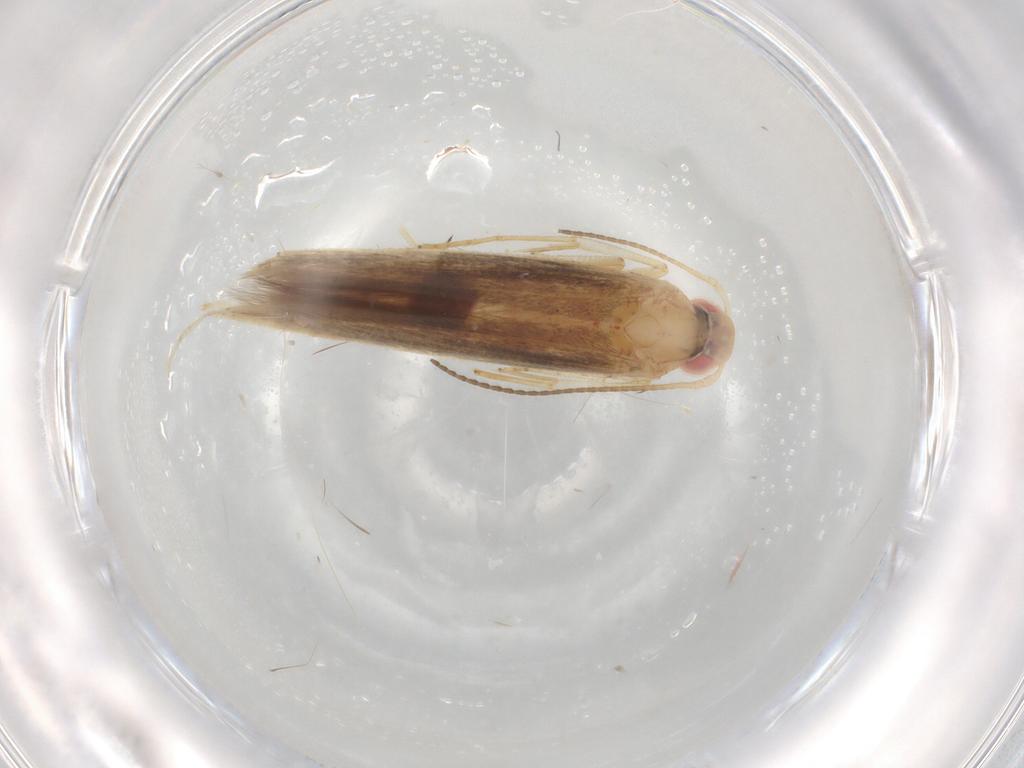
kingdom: Animalia
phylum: Arthropoda
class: Insecta
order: Lepidoptera
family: Cosmopterigidae
